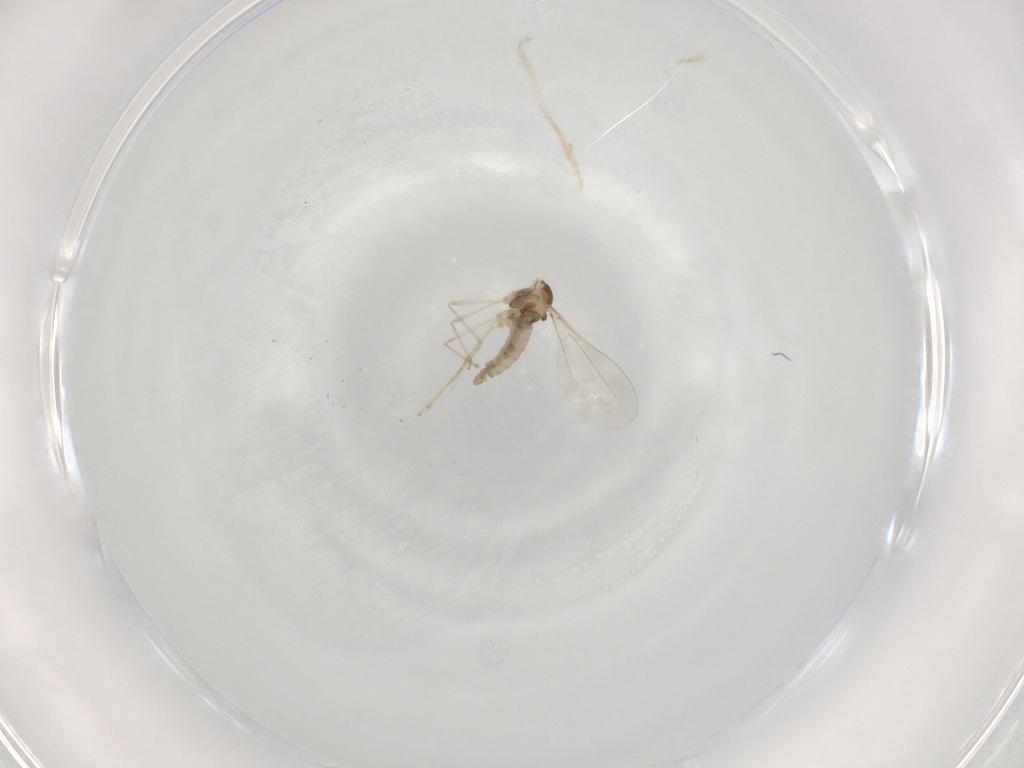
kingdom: Animalia
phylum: Arthropoda
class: Insecta
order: Diptera
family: Cecidomyiidae
